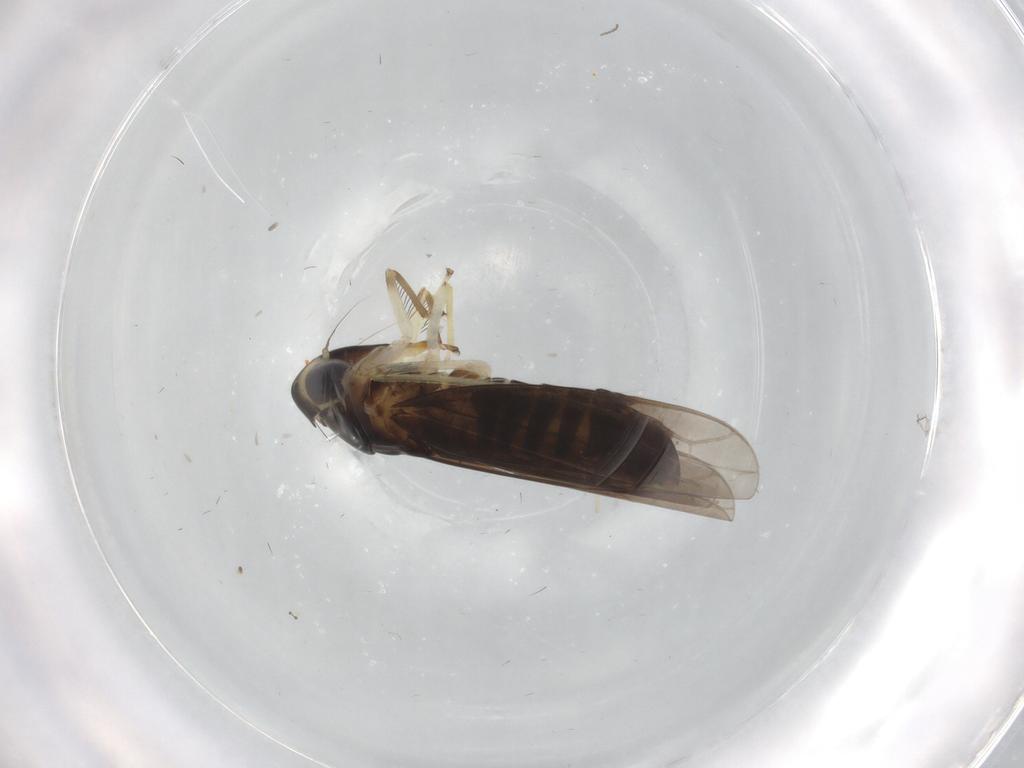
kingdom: Animalia
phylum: Arthropoda
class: Insecta
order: Hemiptera
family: Cicadellidae
